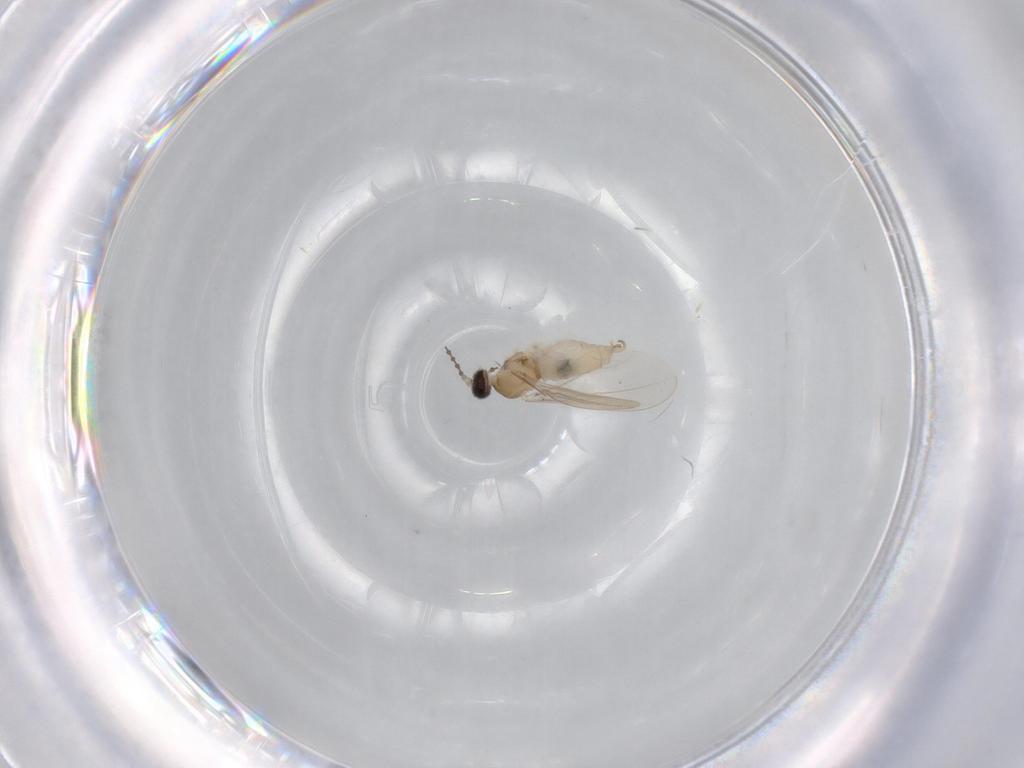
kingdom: Animalia
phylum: Arthropoda
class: Insecta
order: Diptera
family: Cecidomyiidae
